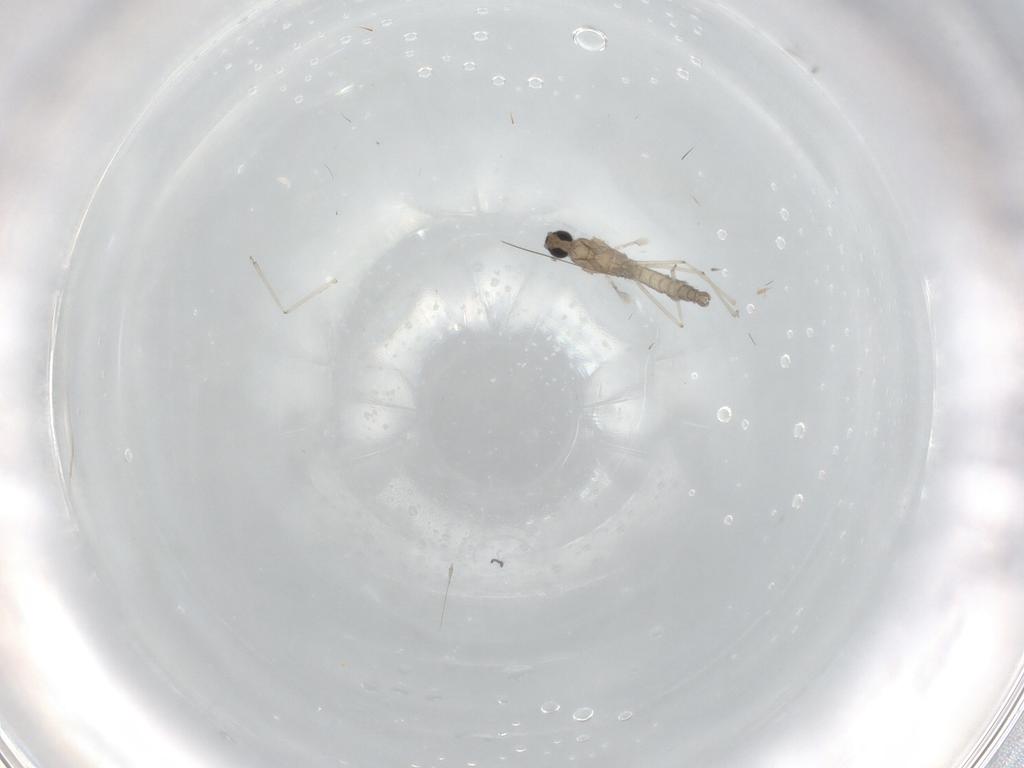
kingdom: Animalia
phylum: Arthropoda
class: Insecta
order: Diptera
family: Cecidomyiidae
